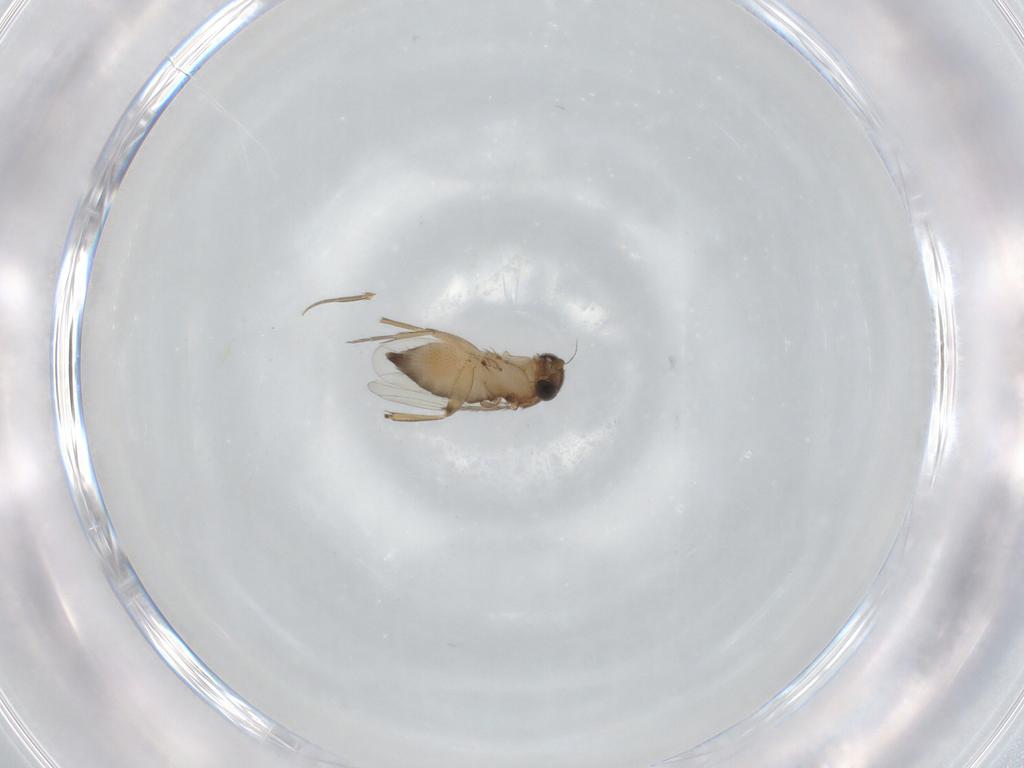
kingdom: Animalia
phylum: Arthropoda
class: Insecta
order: Diptera
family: Phoridae
